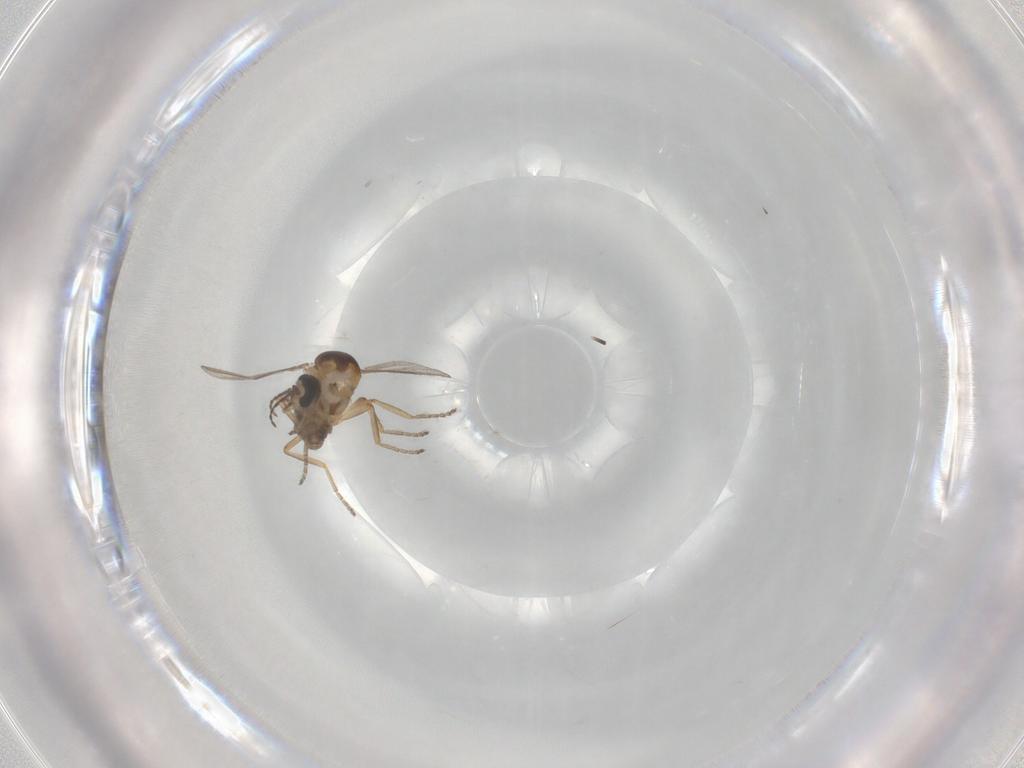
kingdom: Animalia
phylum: Arthropoda
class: Insecta
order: Diptera
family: Ceratopogonidae
